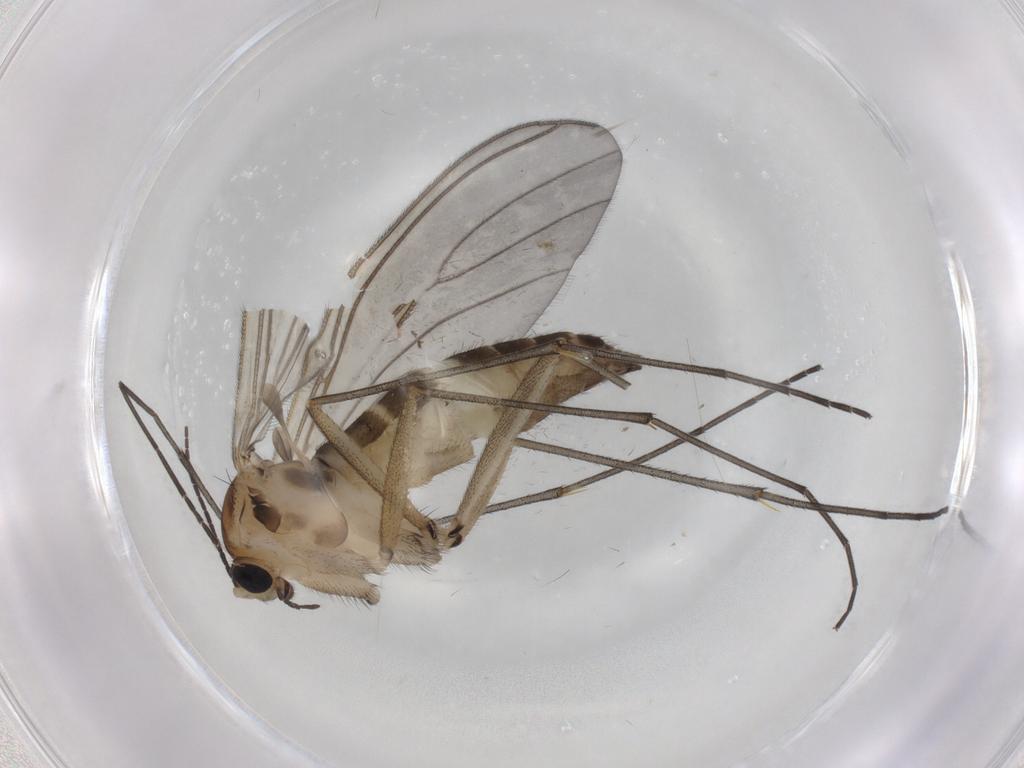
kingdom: Animalia
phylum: Arthropoda
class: Insecta
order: Diptera
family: Sciaridae
